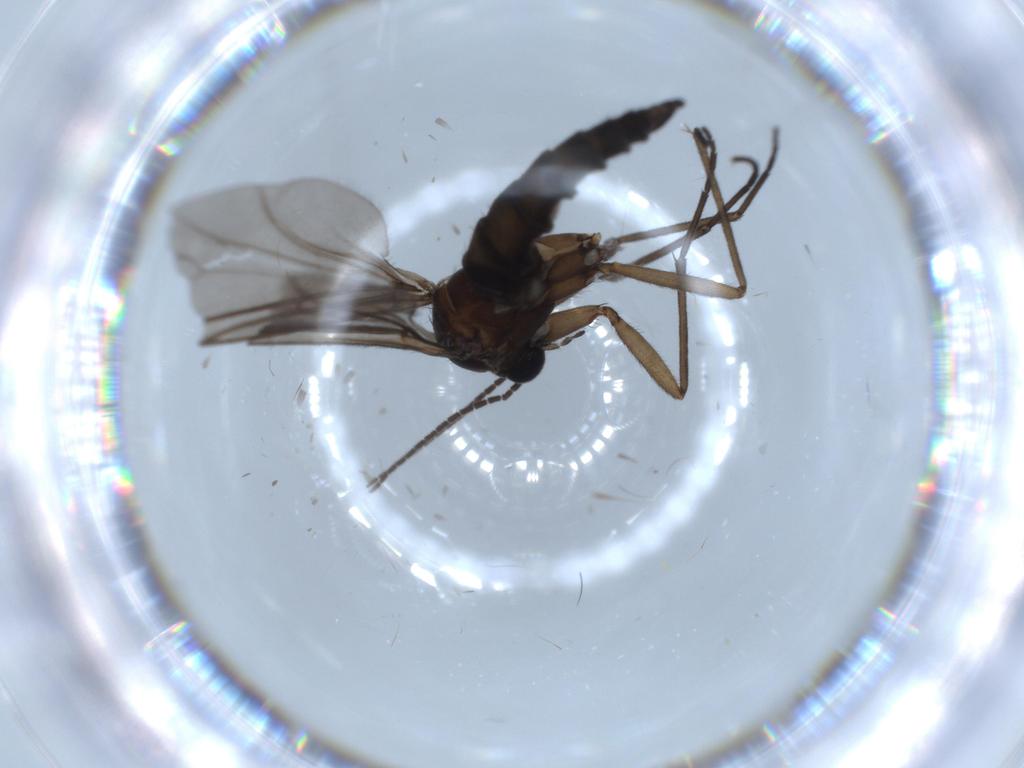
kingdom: Animalia
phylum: Arthropoda
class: Insecta
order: Diptera
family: Sciaridae
